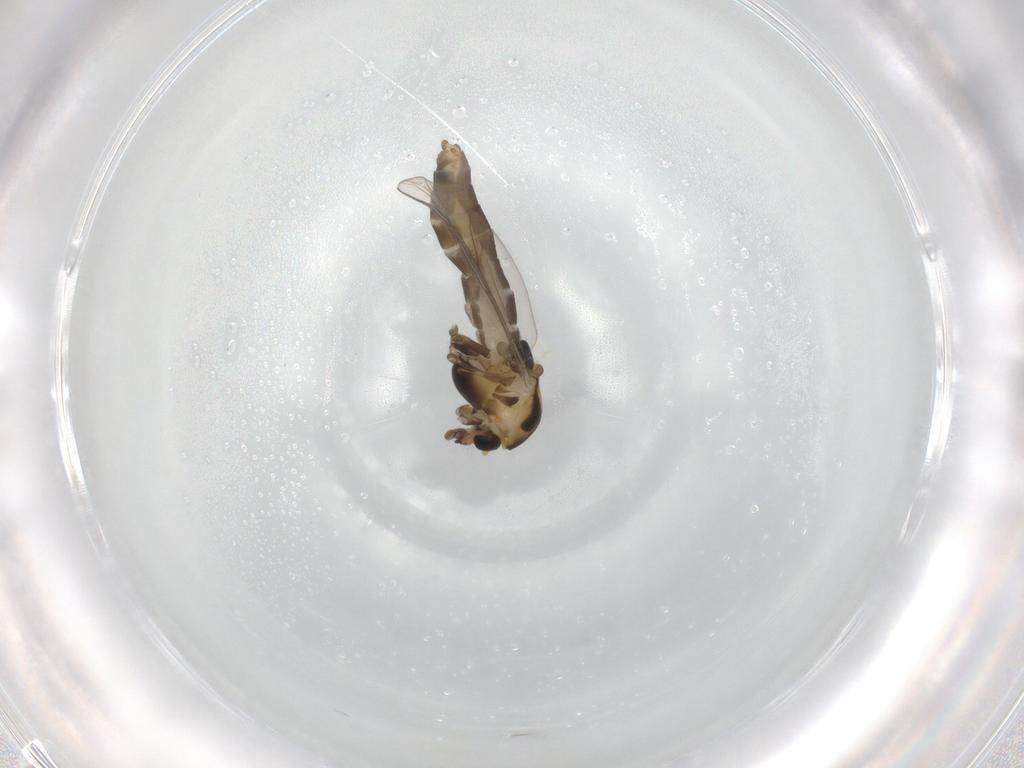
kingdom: Animalia
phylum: Arthropoda
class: Insecta
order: Diptera
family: Chironomidae
